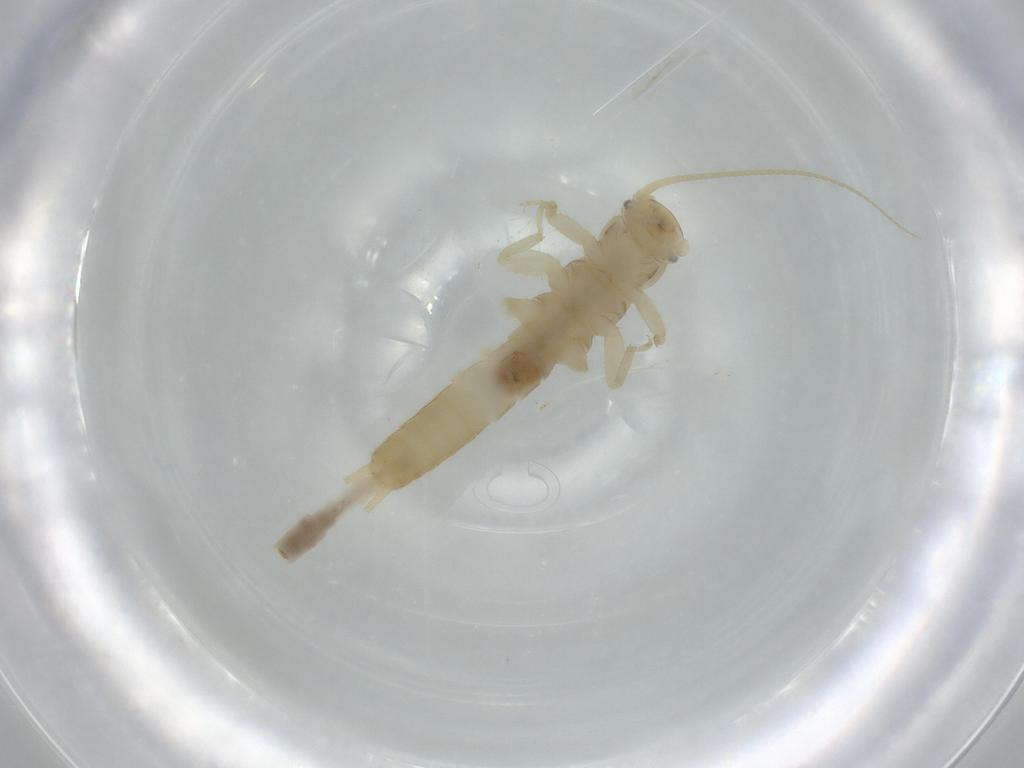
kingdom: Animalia
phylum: Arthropoda
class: Insecta
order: Plecoptera
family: Leuctridae
